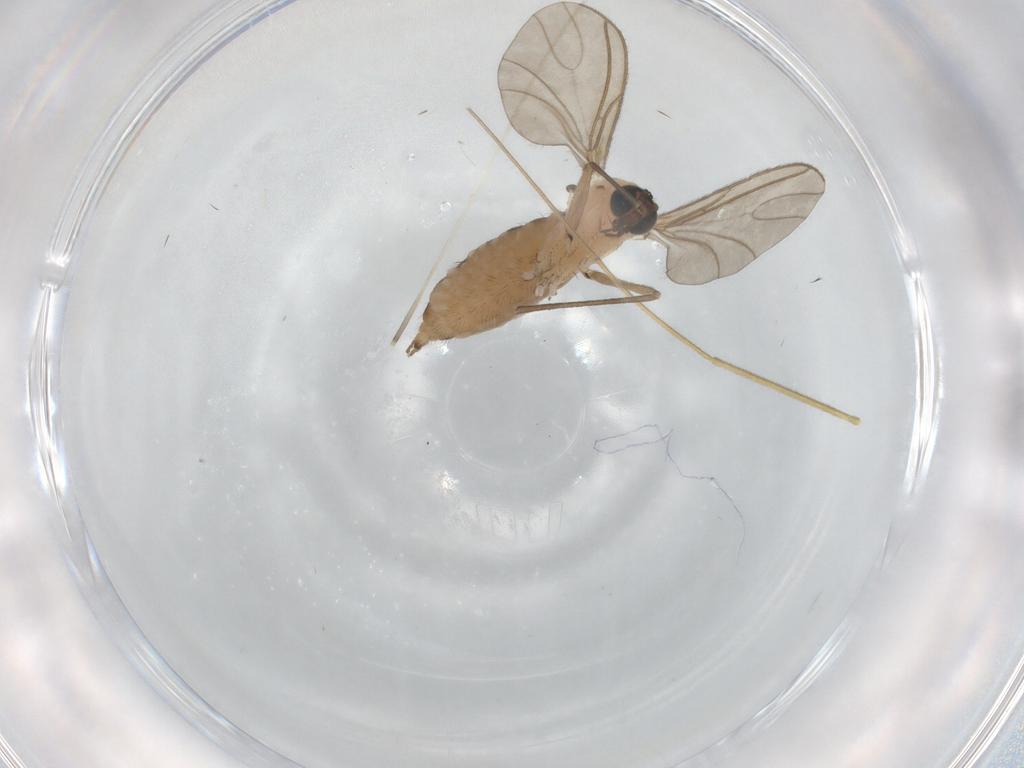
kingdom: Animalia
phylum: Arthropoda
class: Insecta
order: Diptera
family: Sciaridae
